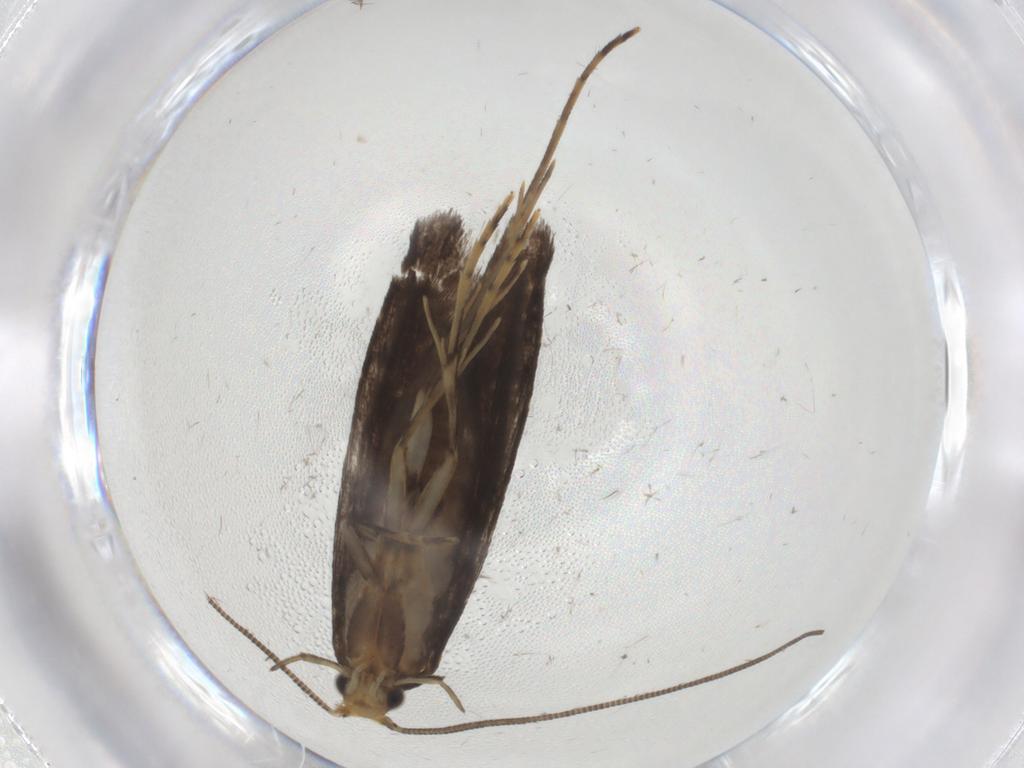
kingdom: Animalia
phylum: Arthropoda
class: Insecta
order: Lepidoptera
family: Tineidae
